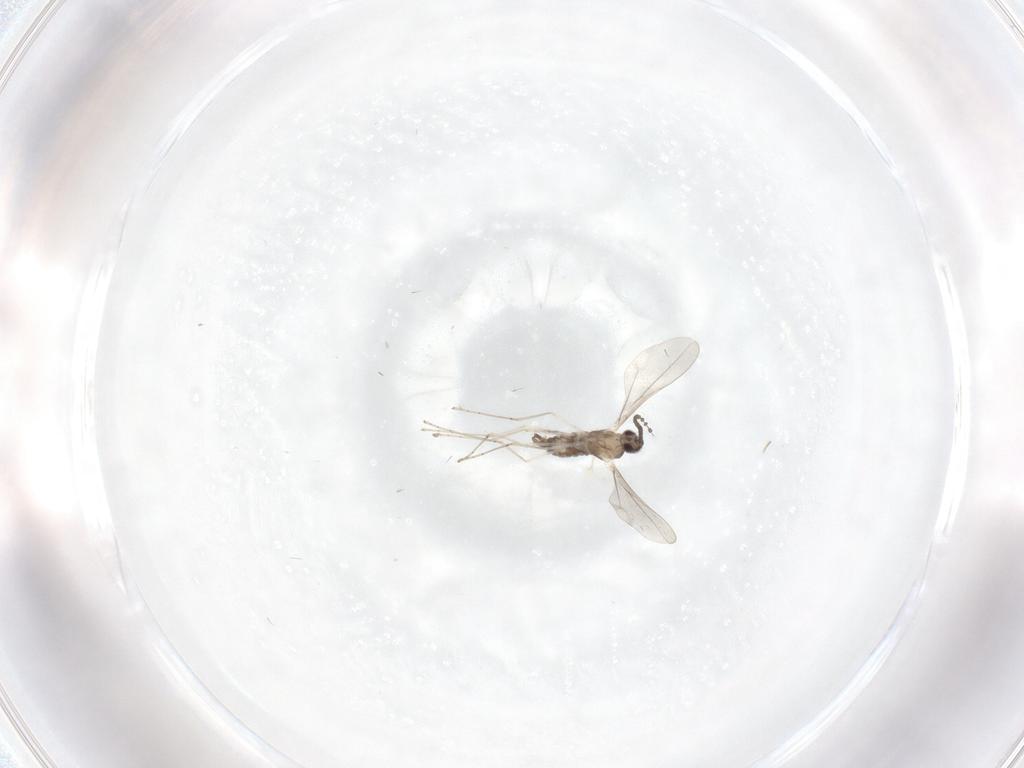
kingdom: Animalia
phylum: Arthropoda
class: Insecta
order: Diptera
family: Cecidomyiidae
